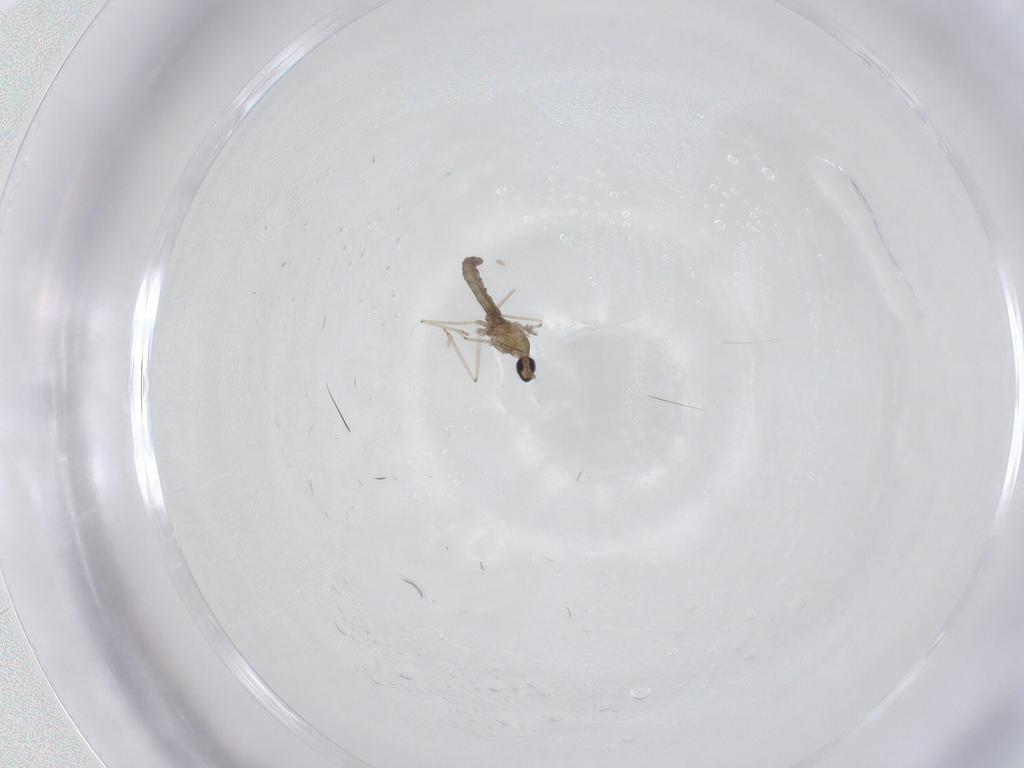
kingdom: Animalia
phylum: Arthropoda
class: Insecta
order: Diptera
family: Cecidomyiidae
